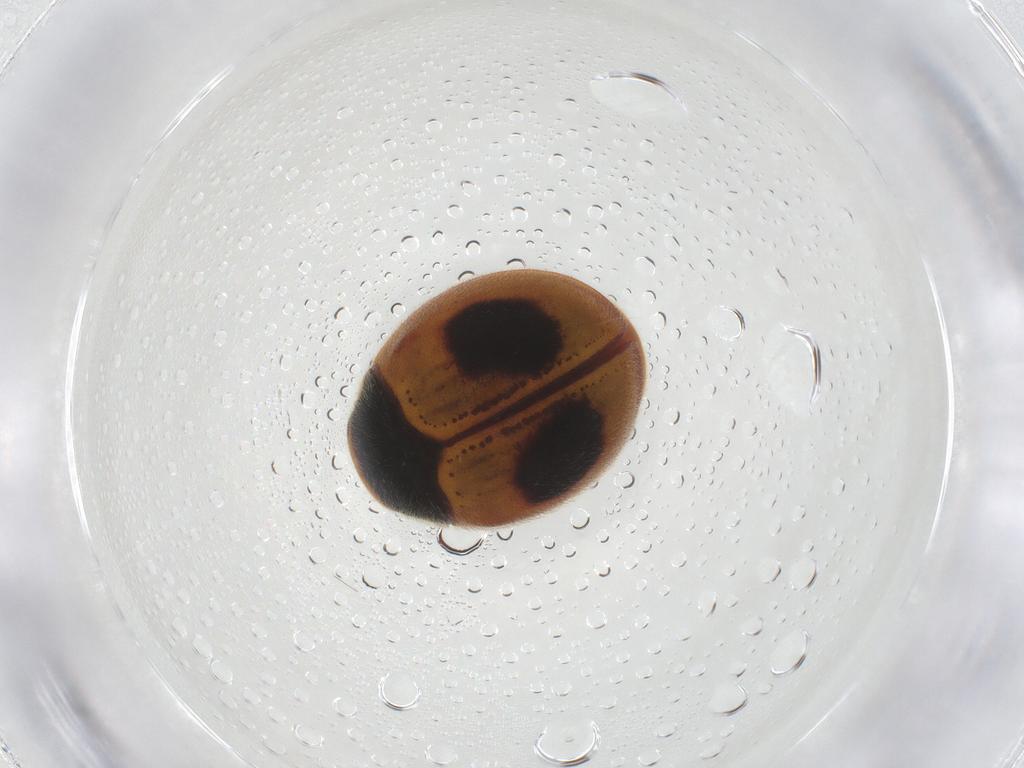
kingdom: Animalia
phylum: Arthropoda
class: Insecta
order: Coleoptera
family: Coccinellidae
